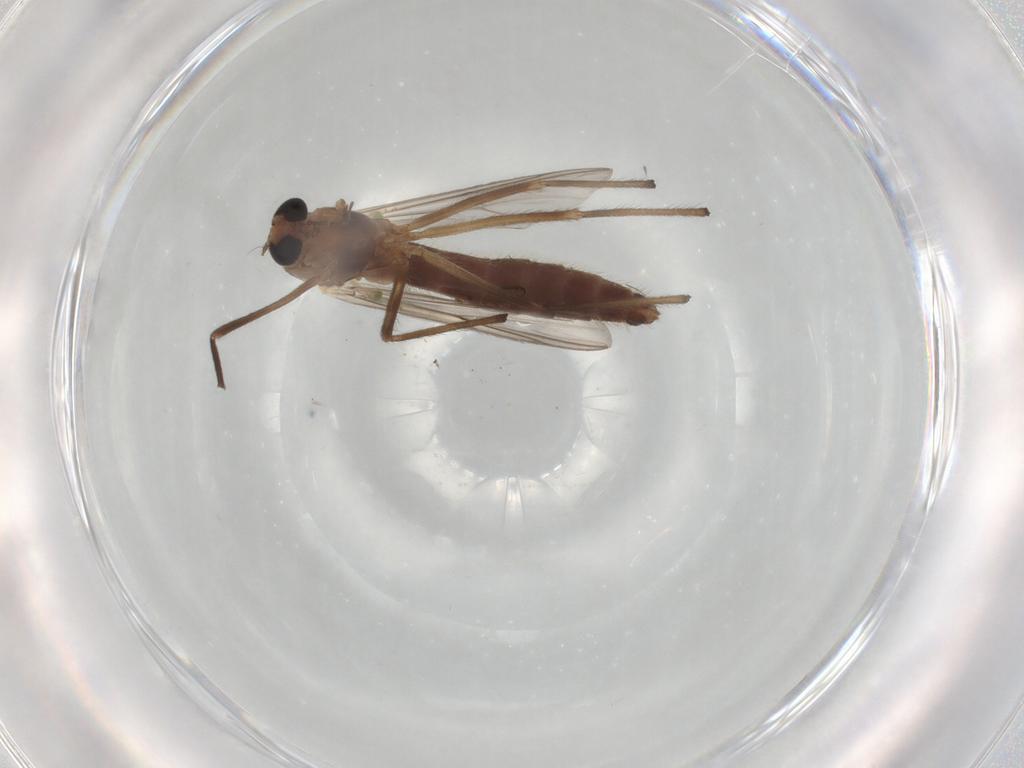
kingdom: Animalia
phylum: Arthropoda
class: Insecta
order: Diptera
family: Chironomidae
